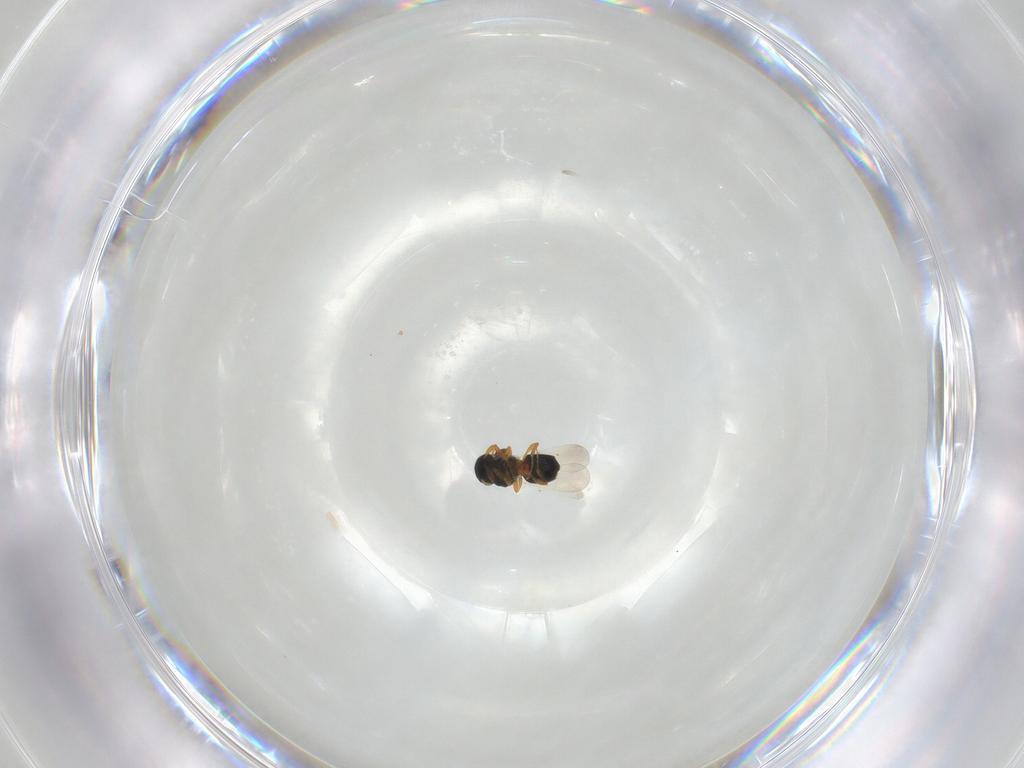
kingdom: Animalia
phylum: Arthropoda
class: Insecta
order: Hymenoptera
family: Platygastridae
